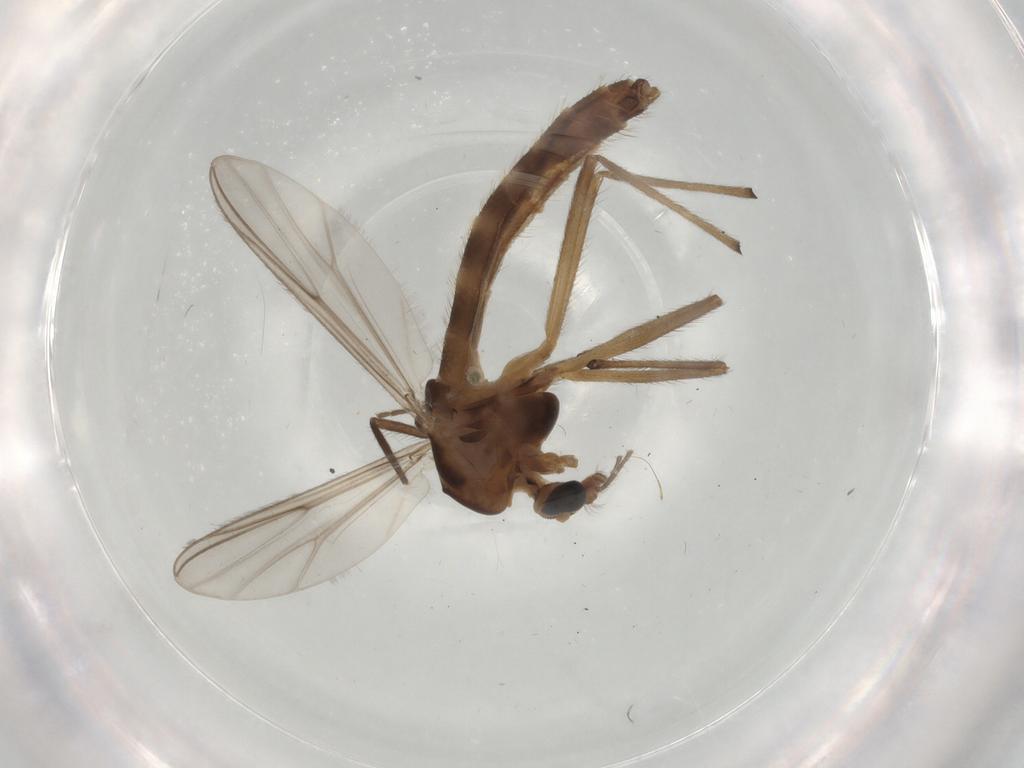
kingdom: Animalia
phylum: Arthropoda
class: Insecta
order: Diptera
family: Chironomidae
